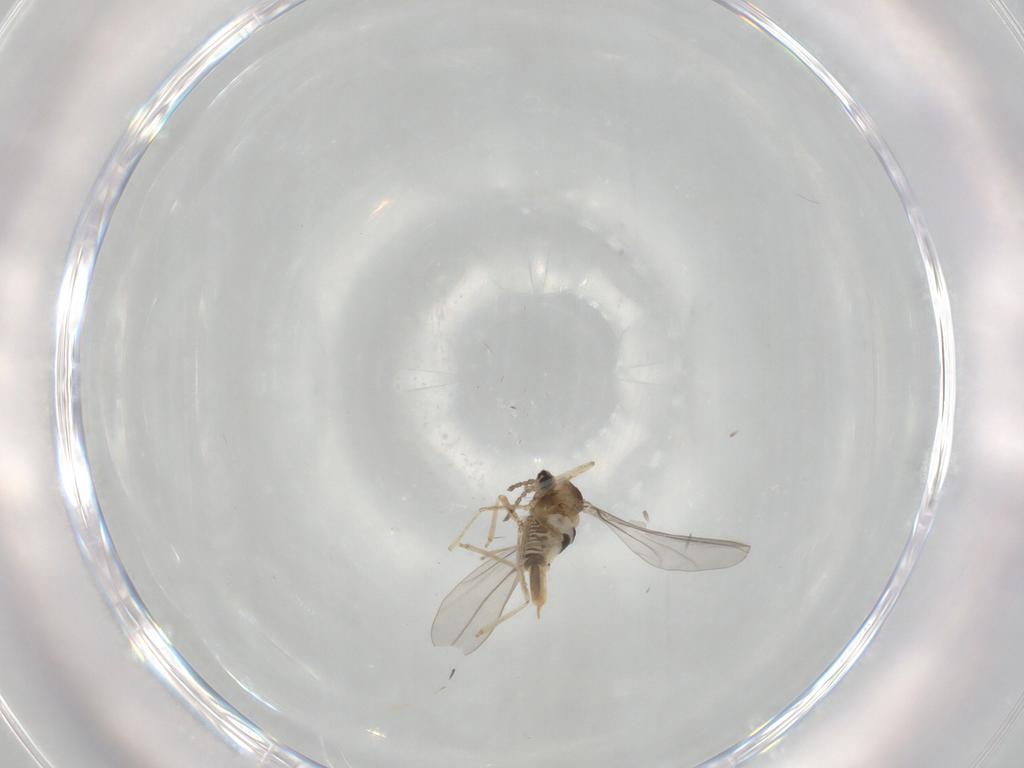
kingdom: Animalia
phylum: Arthropoda
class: Insecta
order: Diptera
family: Cecidomyiidae
